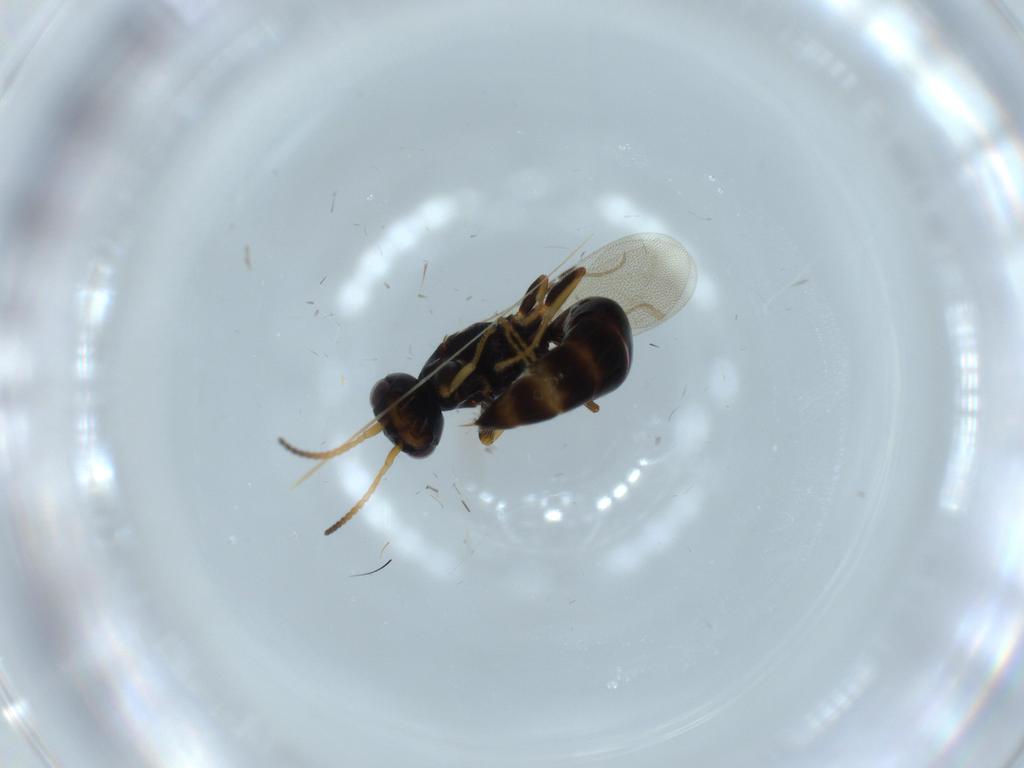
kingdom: Animalia
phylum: Arthropoda
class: Insecta
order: Hymenoptera
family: Bethylidae
